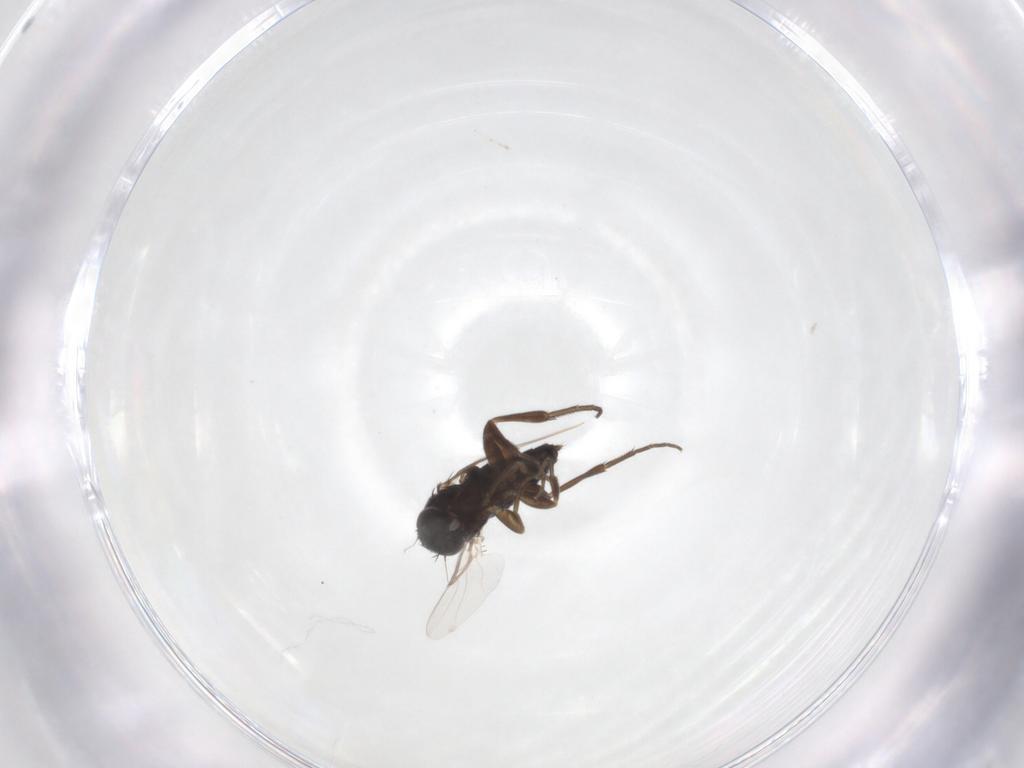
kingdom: Animalia
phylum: Arthropoda
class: Insecta
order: Diptera
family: Phoridae
